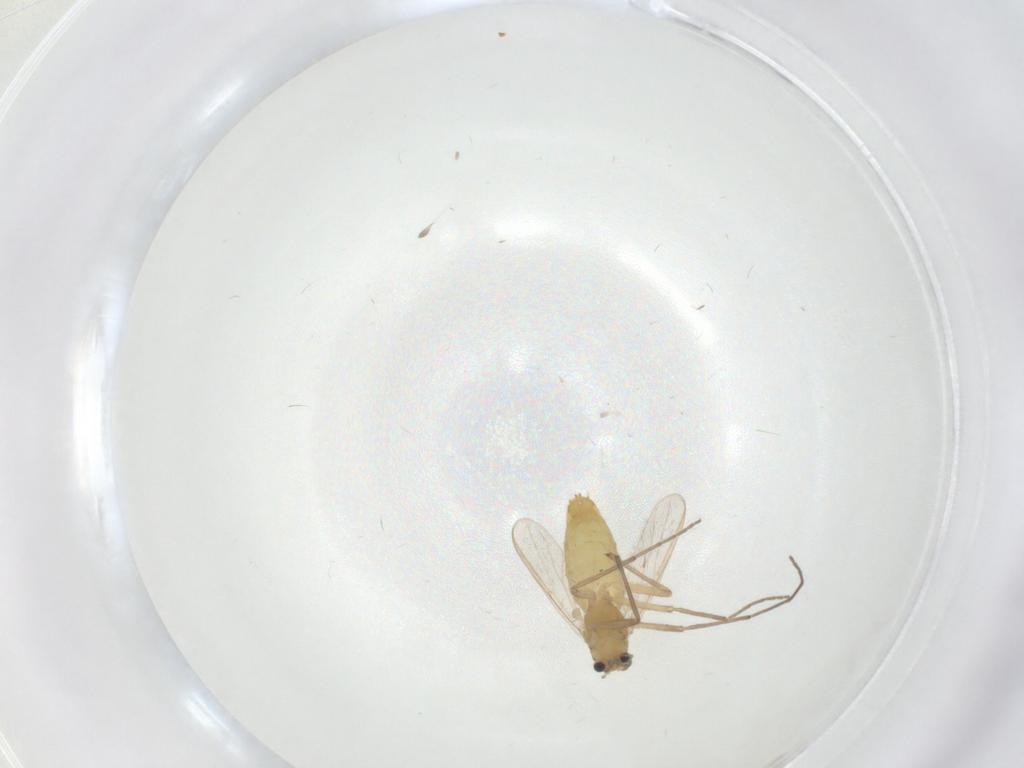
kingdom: Animalia
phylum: Arthropoda
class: Insecta
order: Diptera
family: Chironomidae
